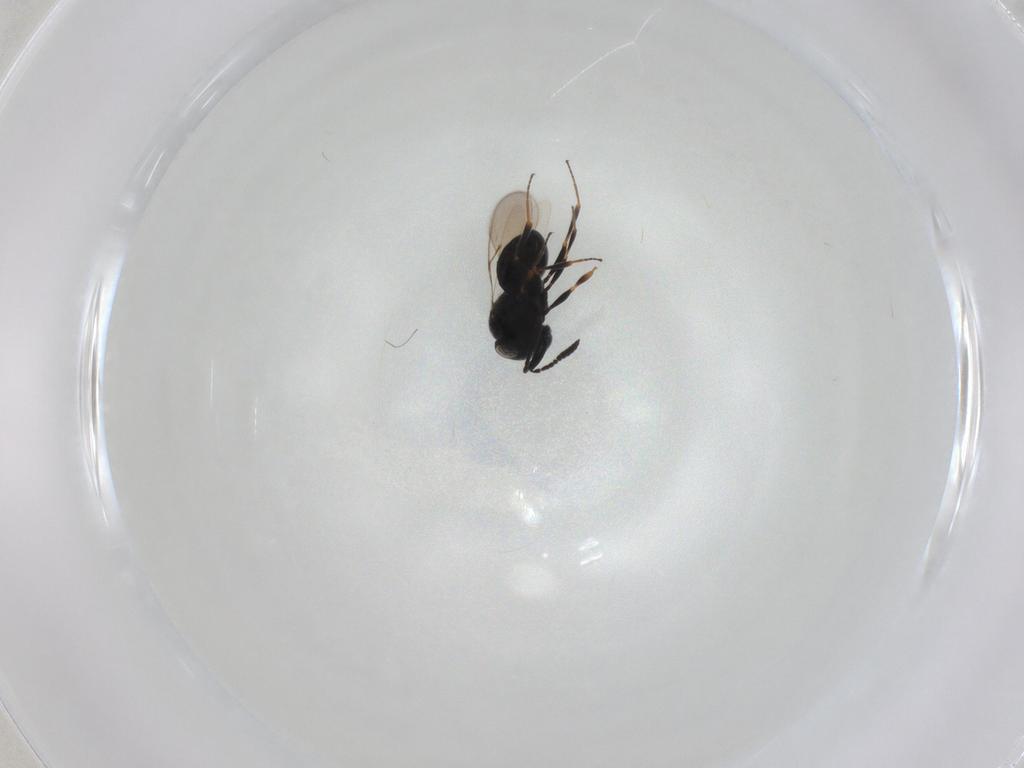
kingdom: Animalia
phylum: Arthropoda
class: Insecta
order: Hymenoptera
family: Scelionidae
